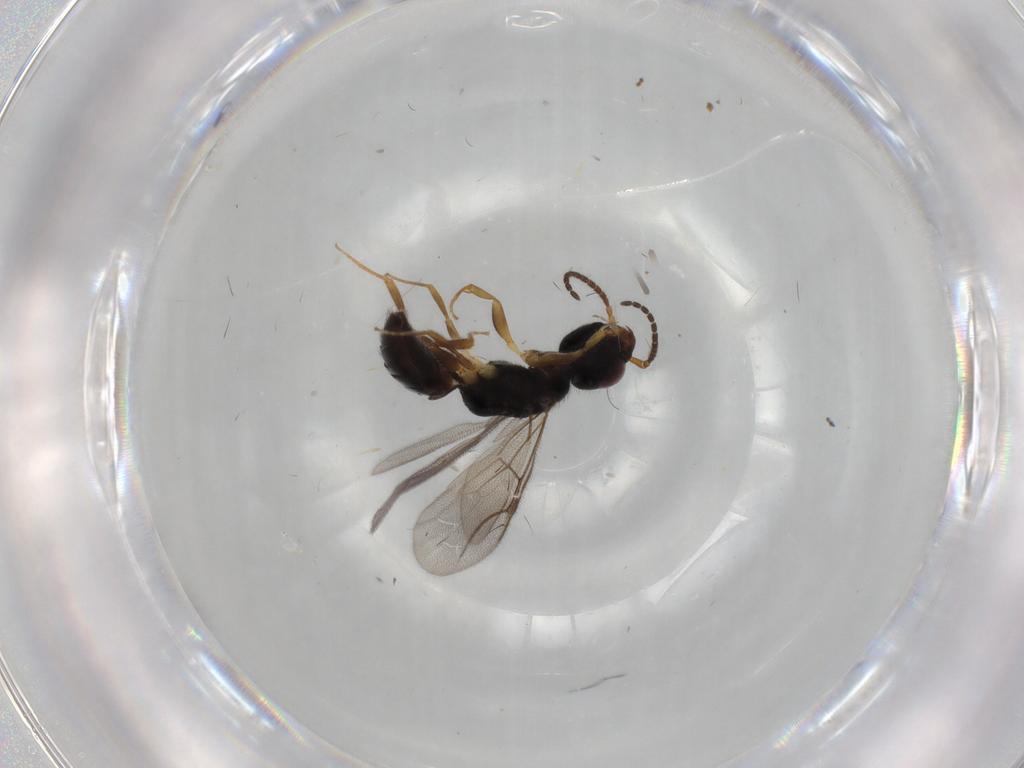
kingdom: Animalia
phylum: Arthropoda
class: Insecta
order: Hymenoptera
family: Bethylidae
